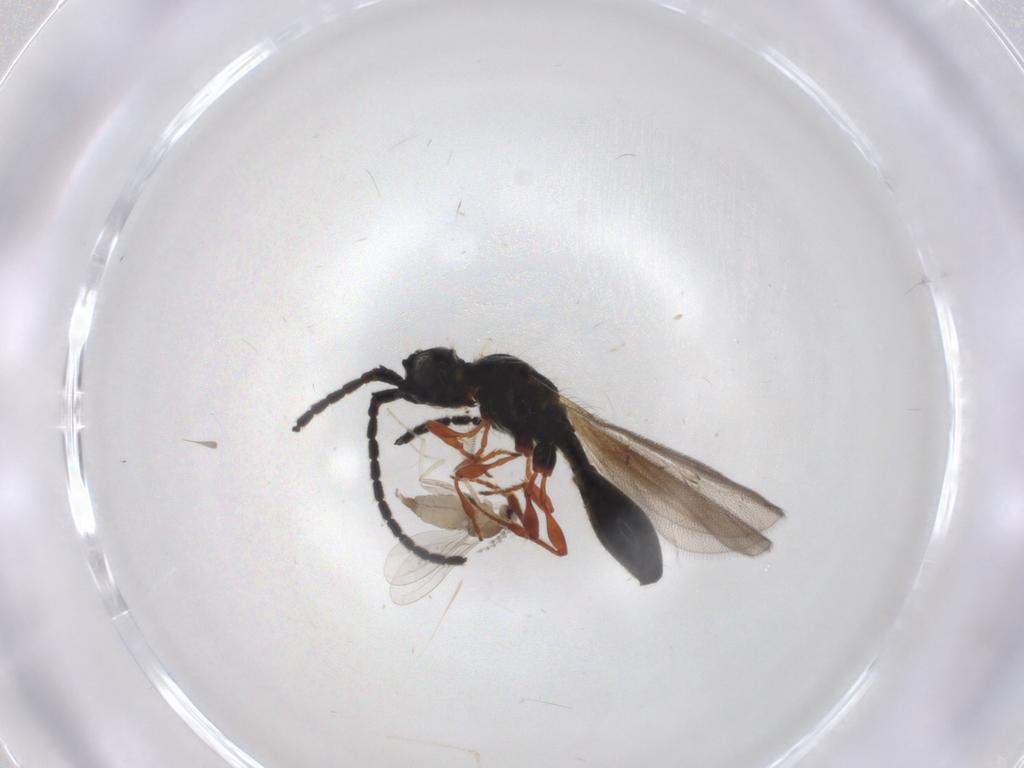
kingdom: Animalia
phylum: Arthropoda
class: Insecta
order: Diptera
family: Cecidomyiidae
